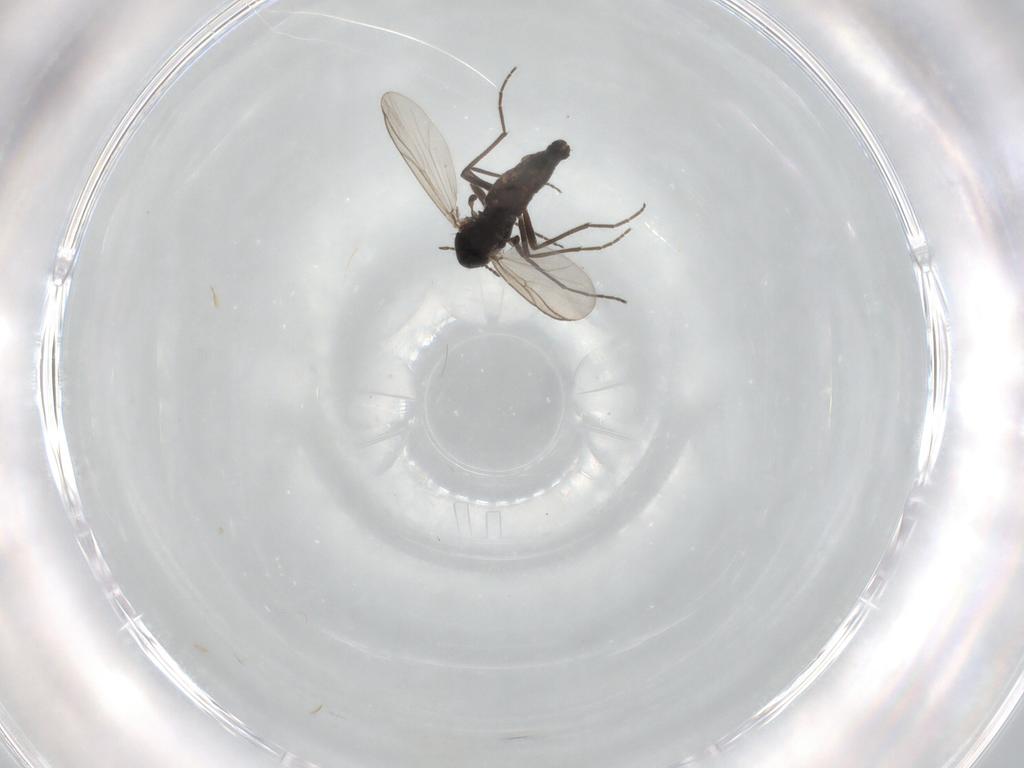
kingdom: Animalia
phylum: Arthropoda
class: Insecta
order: Diptera
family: Chironomidae
